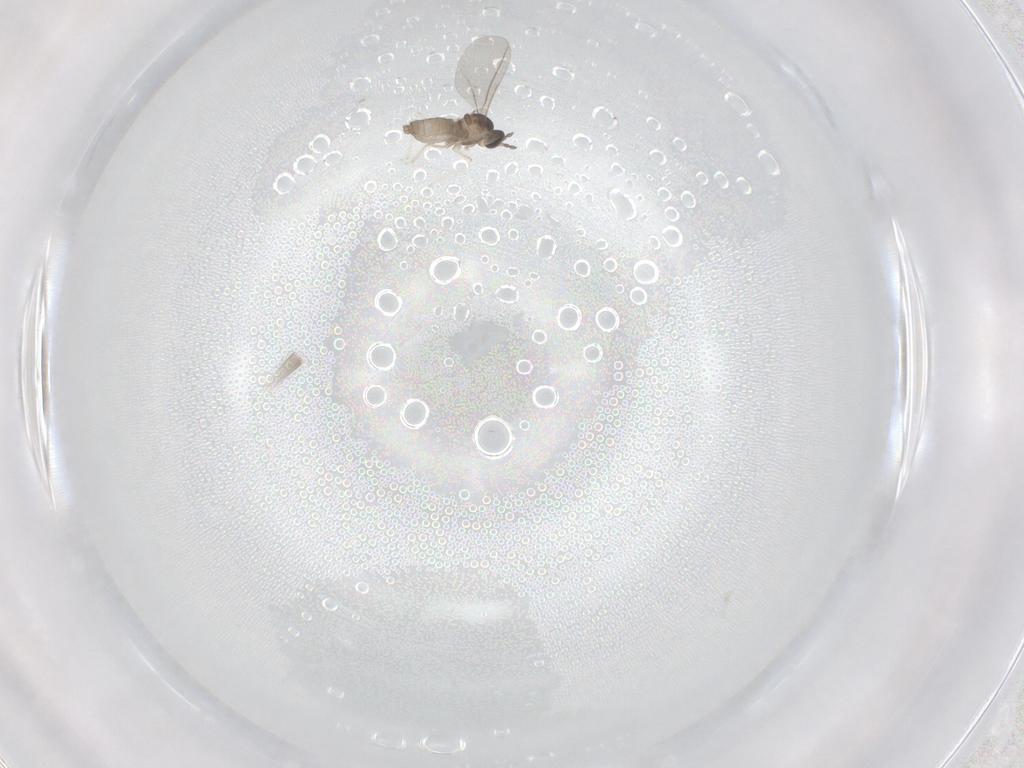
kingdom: Animalia
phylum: Arthropoda
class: Insecta
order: Diptera
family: Cecidomyiidae
